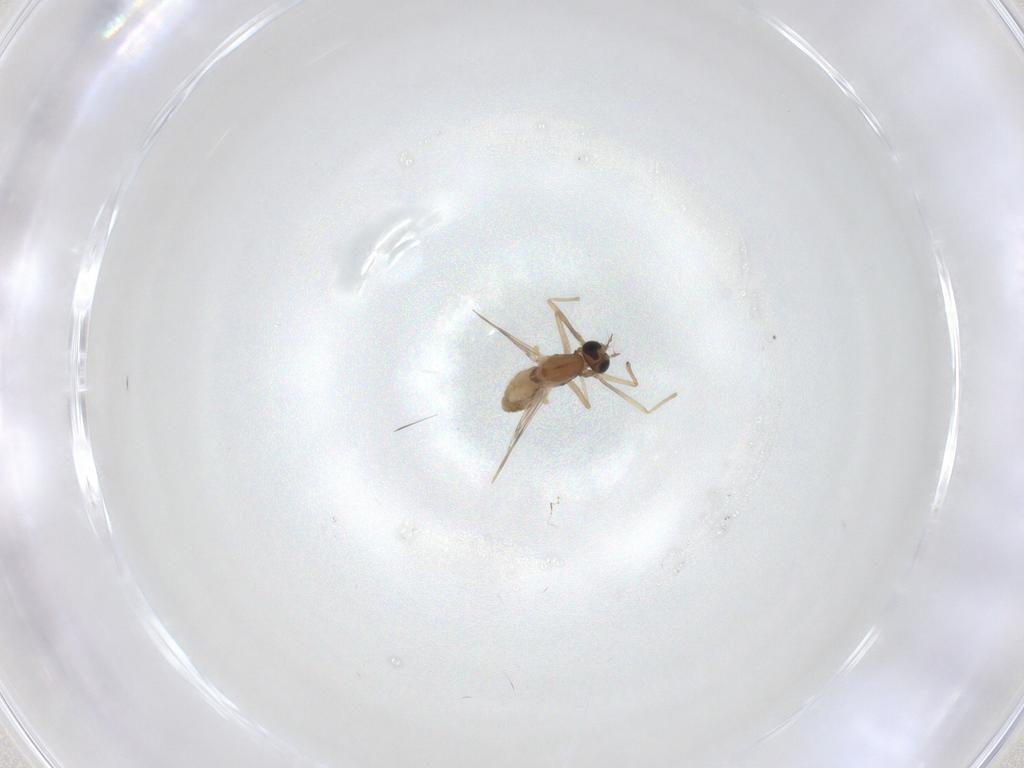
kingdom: Animalia
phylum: Arthropoda
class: Insecta
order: Diptera
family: Chironomidae
